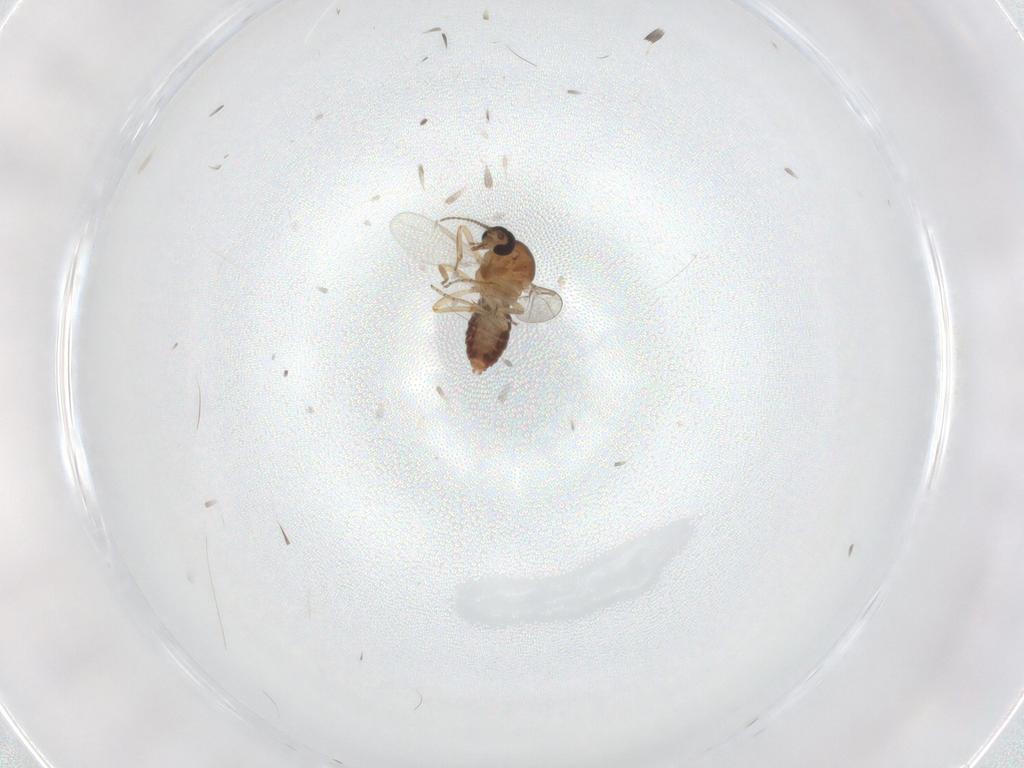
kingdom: Animalia
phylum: Arthropoda
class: Insecta
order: Diptera
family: Ceratopogonidae
